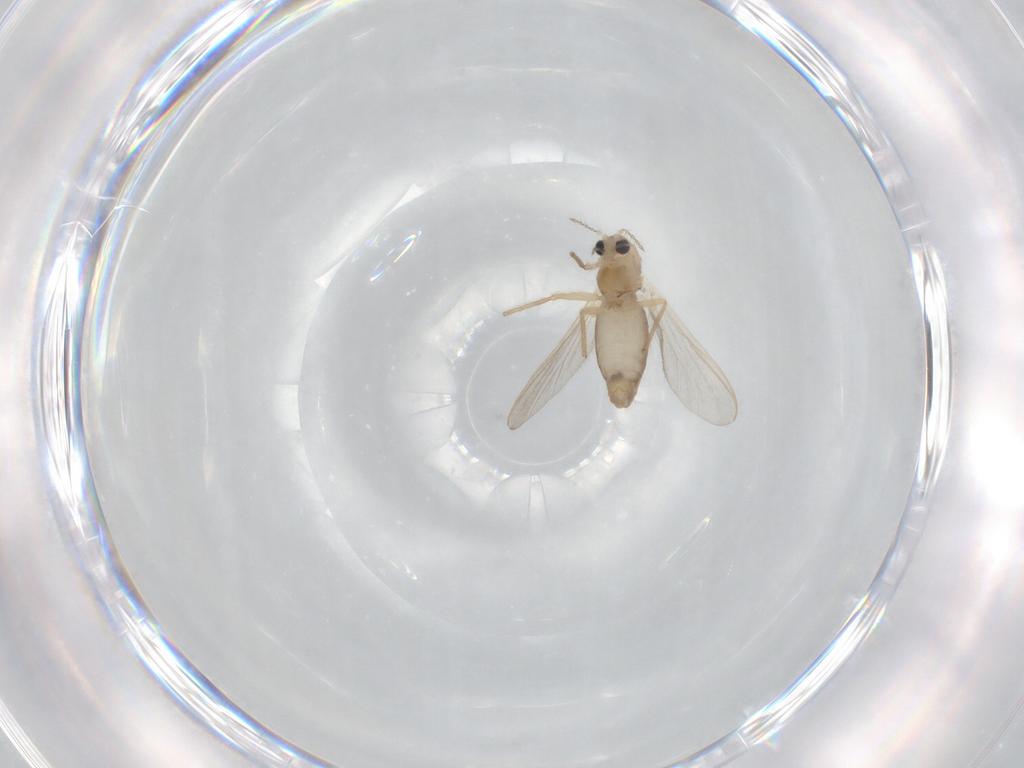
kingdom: Animalia
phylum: Arthropoda
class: Insecta
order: Diptera
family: Chironomidae
